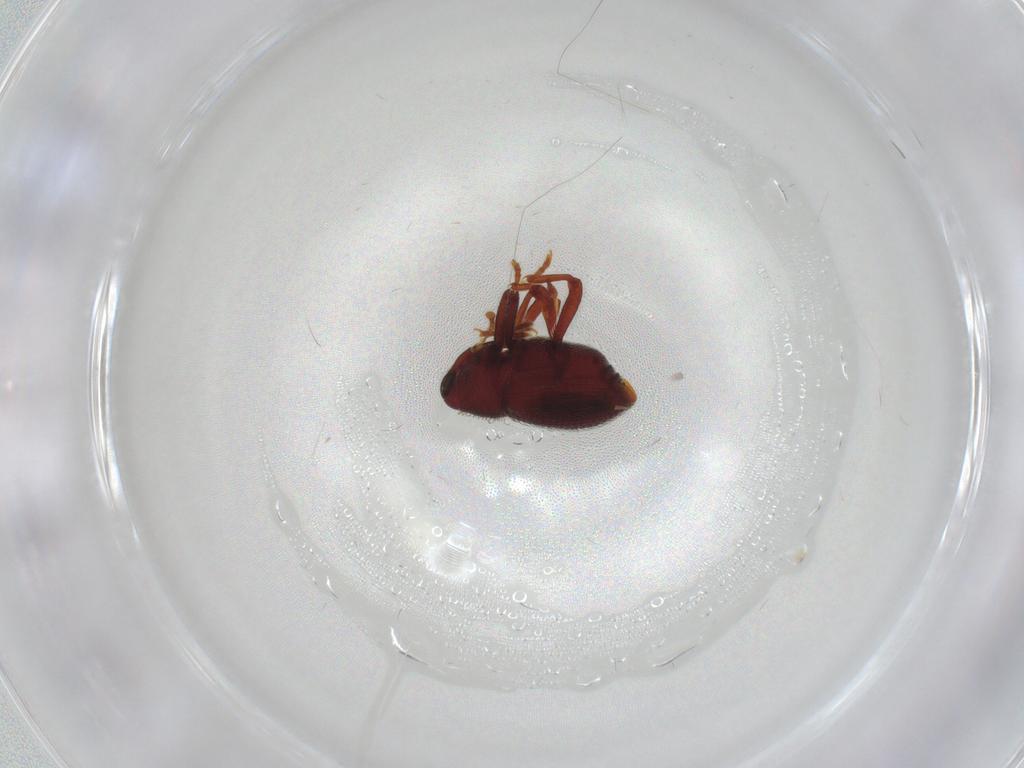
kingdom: Animalia
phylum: Arthropoda
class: Insecta
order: Coleoptera
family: Curculionidae
